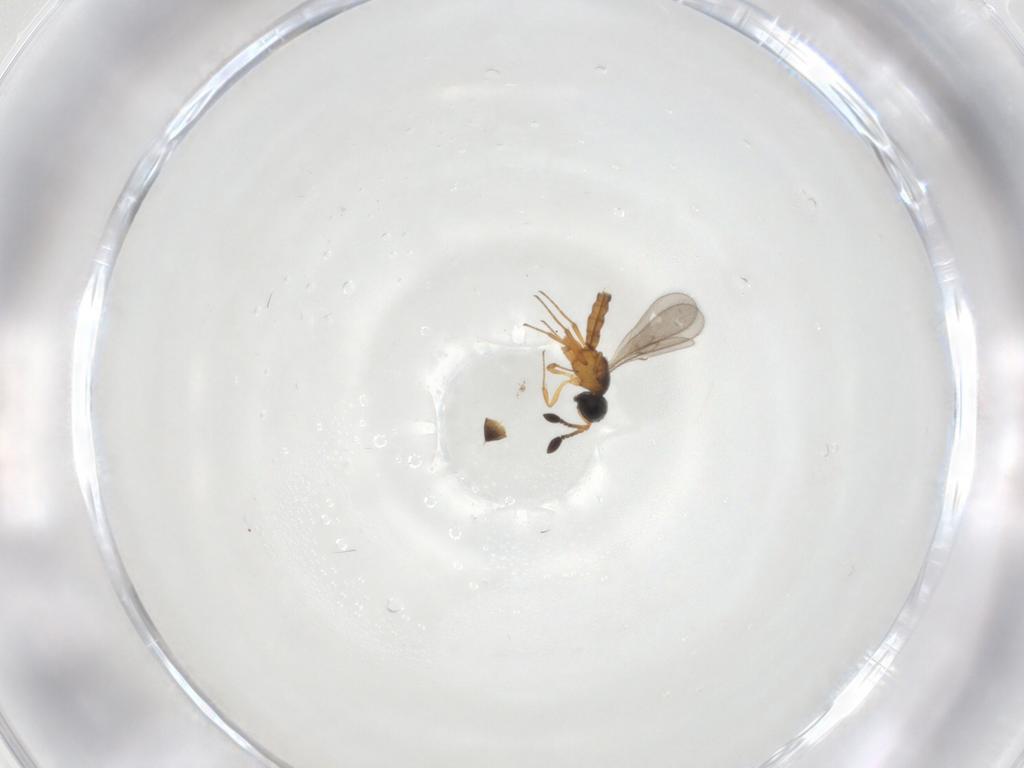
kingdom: Animalia
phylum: Arthropoda
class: Insecta
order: Hymenoptera
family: Scelionidae
